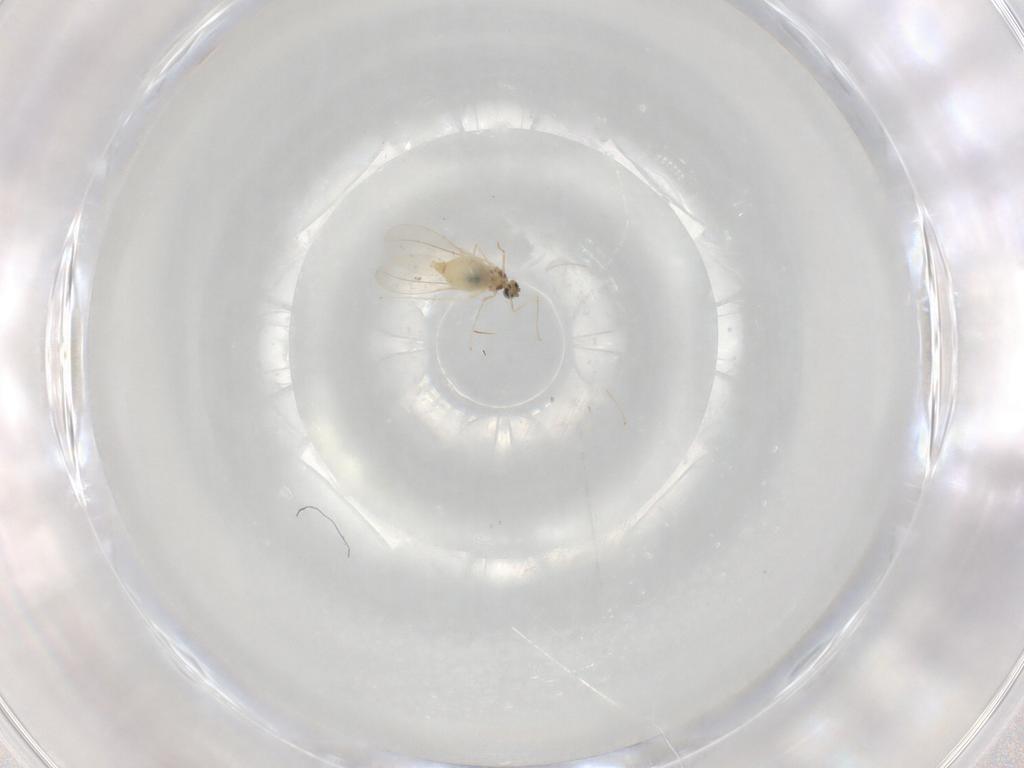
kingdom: Animalia
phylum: Arthropoda
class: Insecta
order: Diptera
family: Cecidomyiidae
